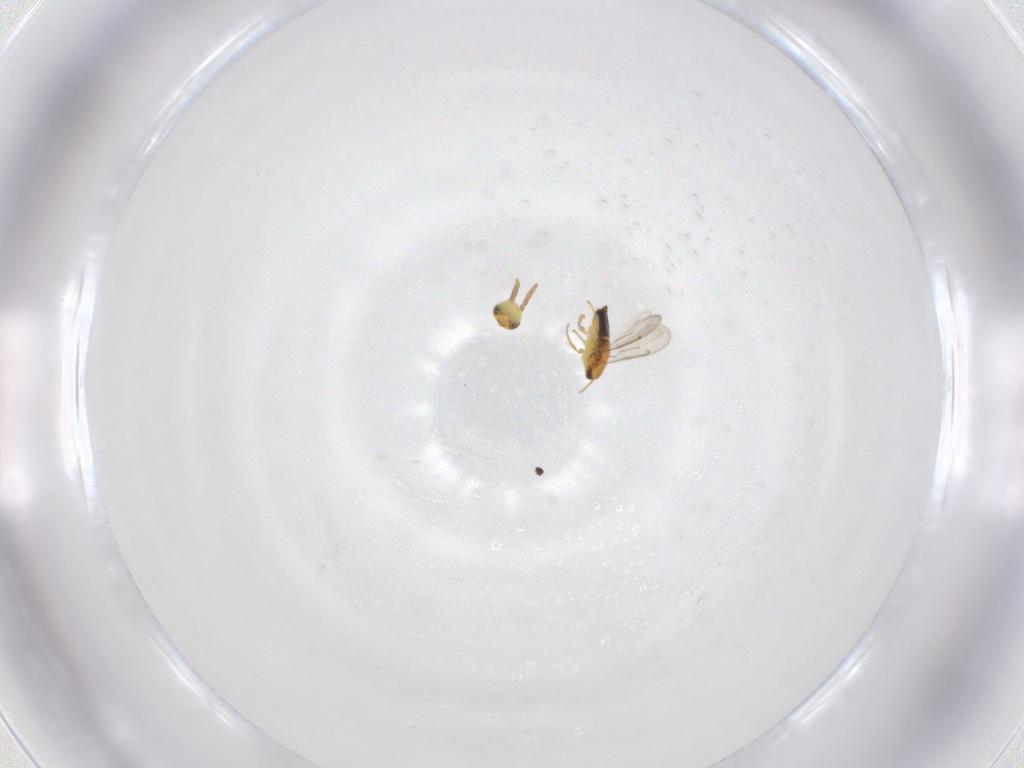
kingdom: Animalia
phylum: Arthropoda
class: Insecta
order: Hymenoptera
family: Aphelinidae
